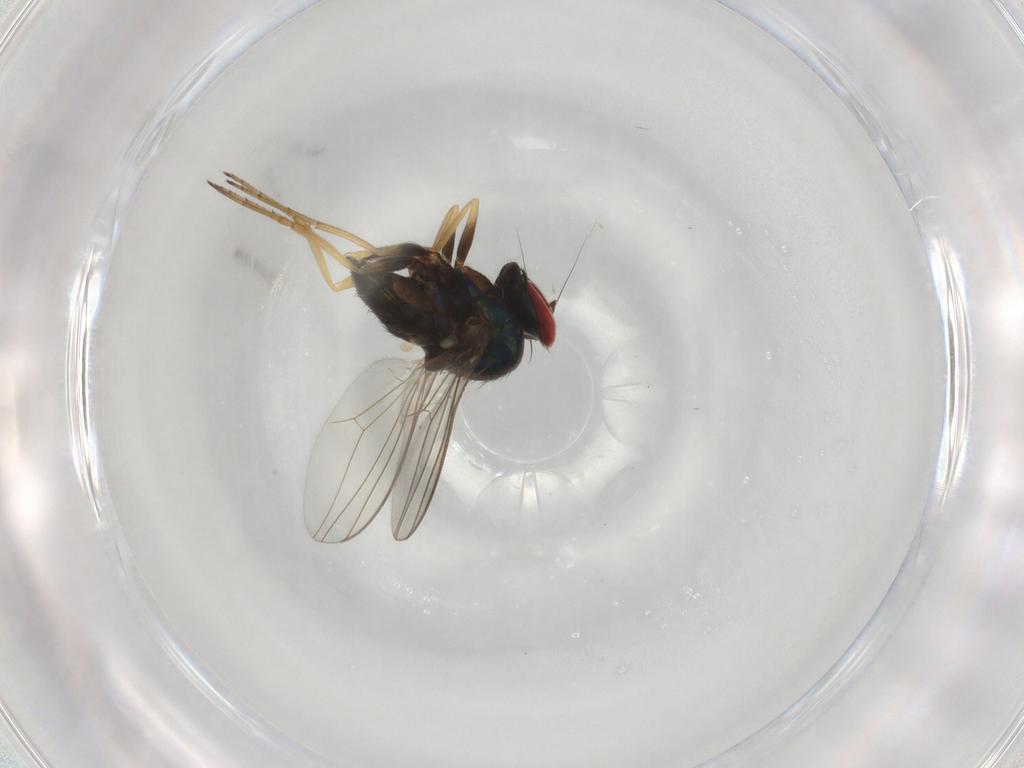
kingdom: Animalia
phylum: Arthropoda
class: Insecta
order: Diptera
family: Dolichopodidae
